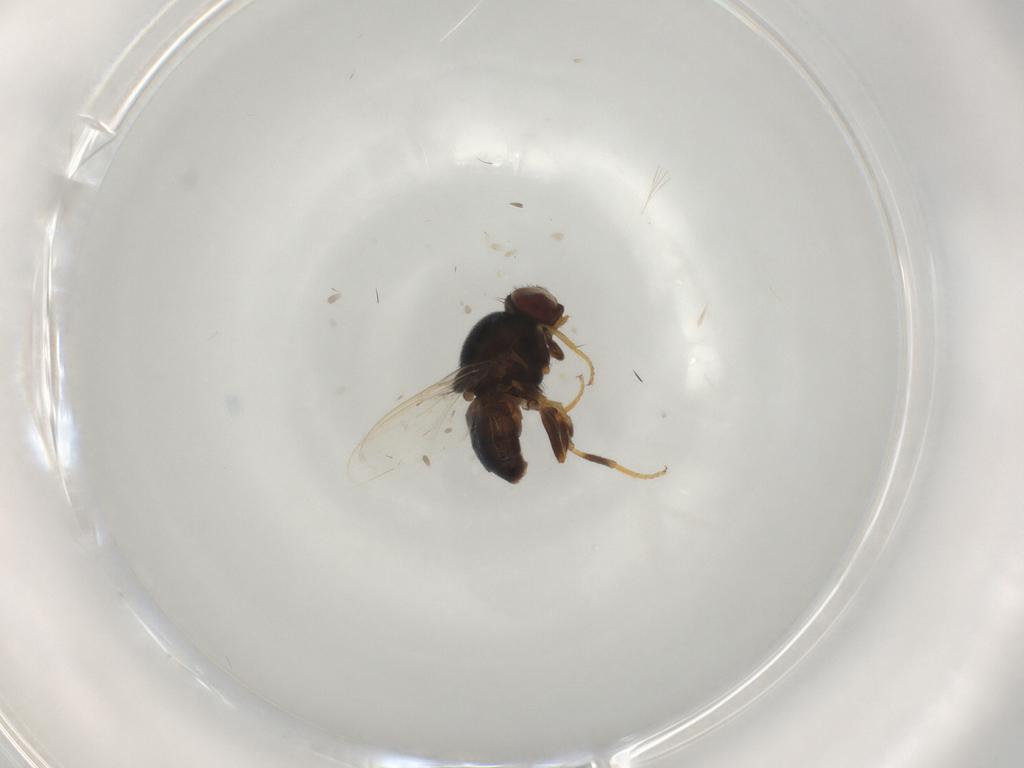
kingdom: Animalia
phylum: Arthropoda
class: Insecta
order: Diptera
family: Chloropidae
